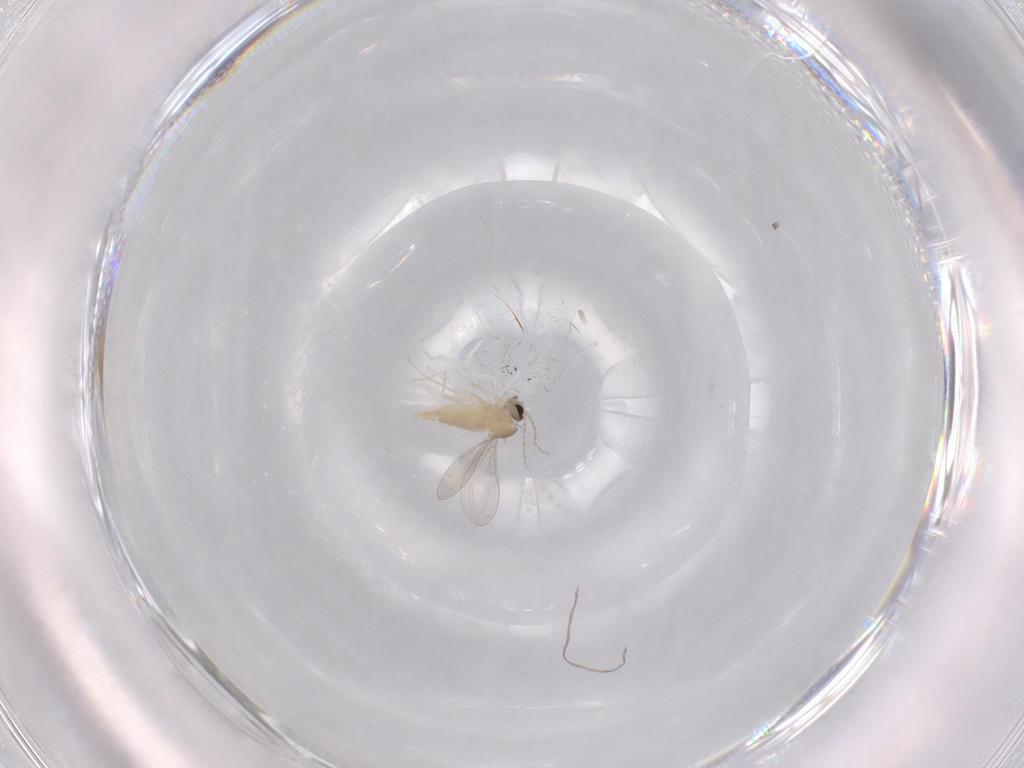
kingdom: Animalia
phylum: Arthropoda
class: Insecta
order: Diptera
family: Cecidomyiidae
